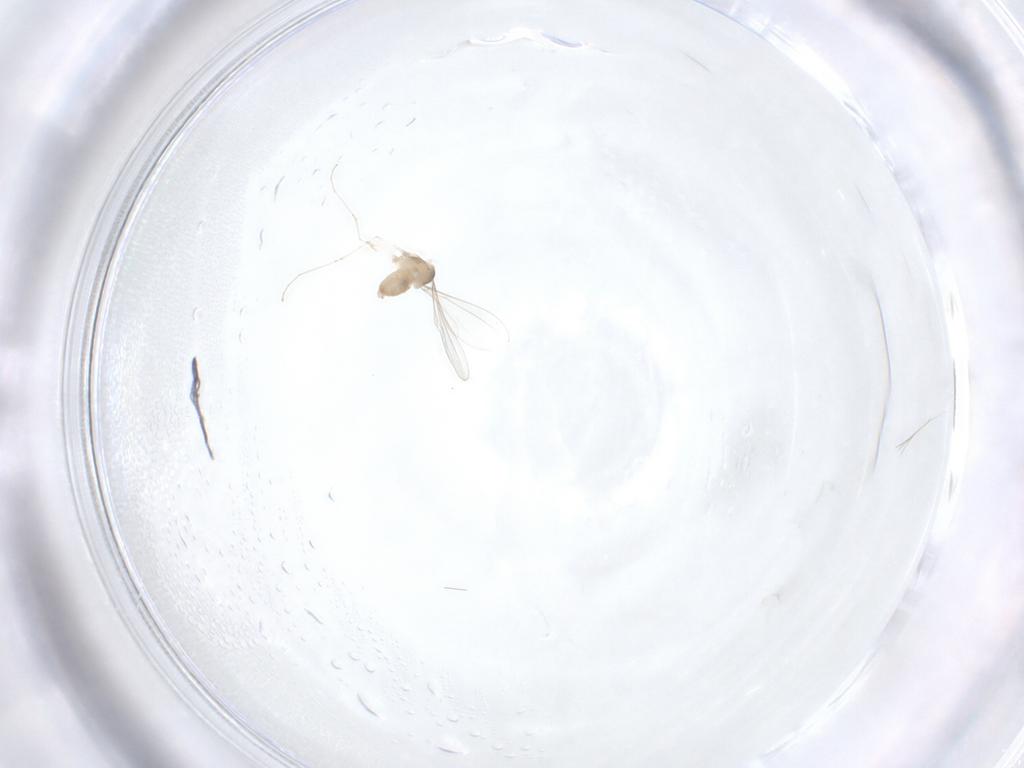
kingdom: Animalia
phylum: Arthropoda
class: Insecta
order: Diptera
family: Cecidomyiidae
